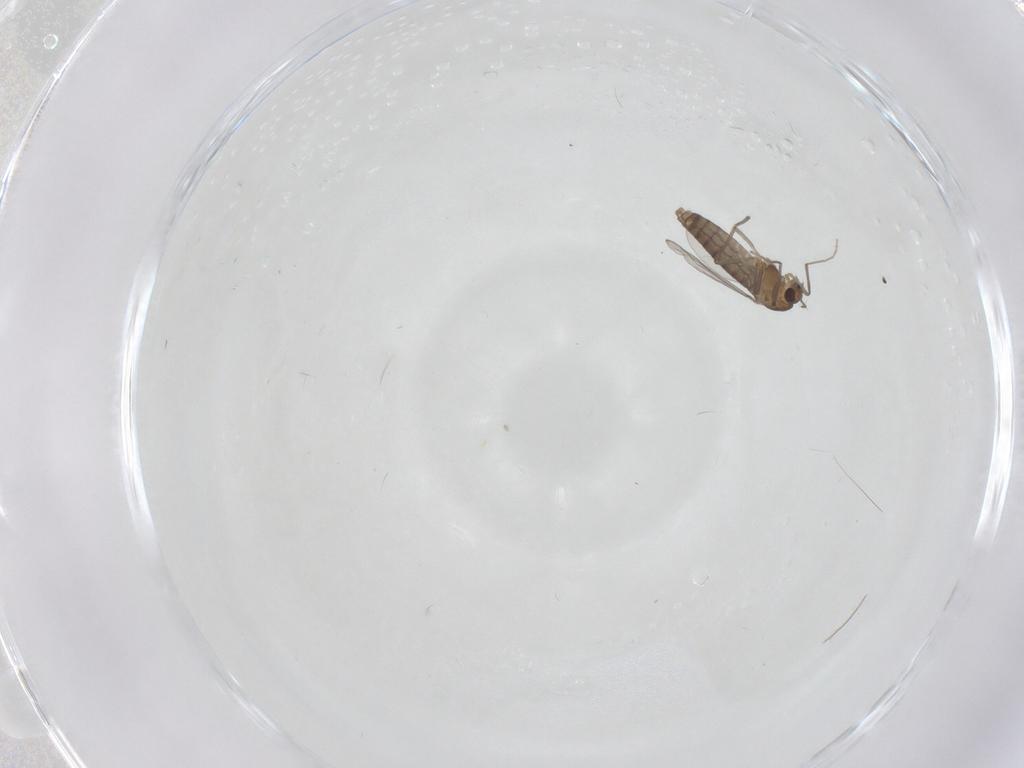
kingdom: Animalia
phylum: Arthropoda
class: Insecta
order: Diptera
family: Chironomidae
